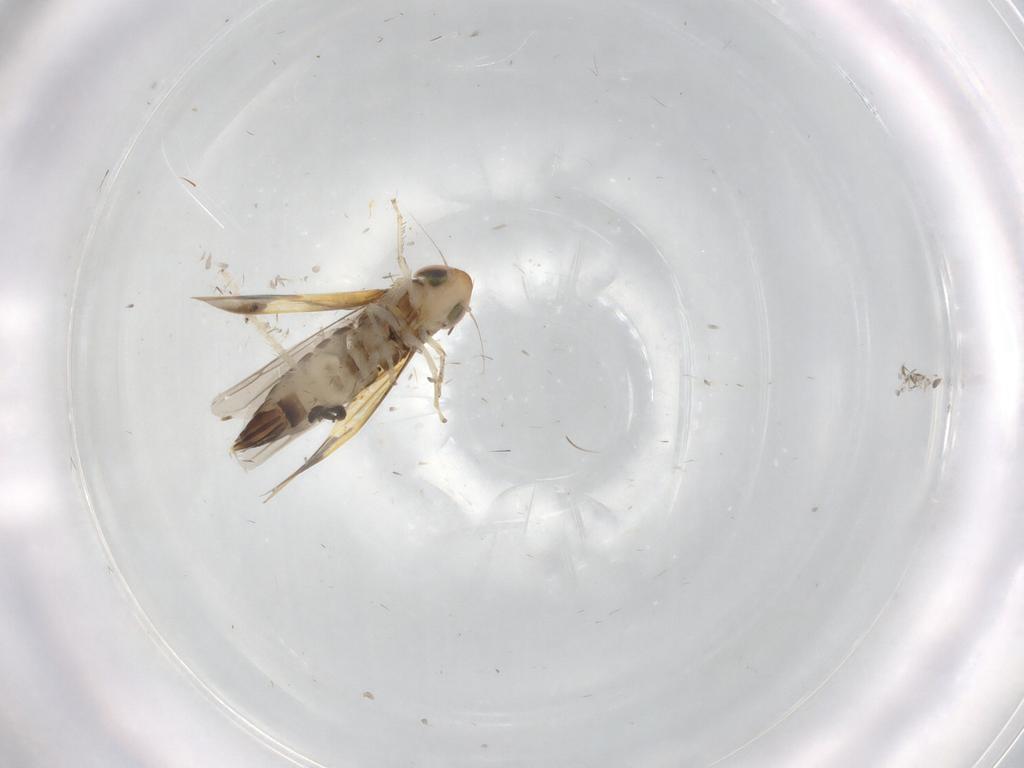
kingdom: Animalia
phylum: Arthropoda
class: Insecta
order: Hemiptera
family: Cicadellidae
